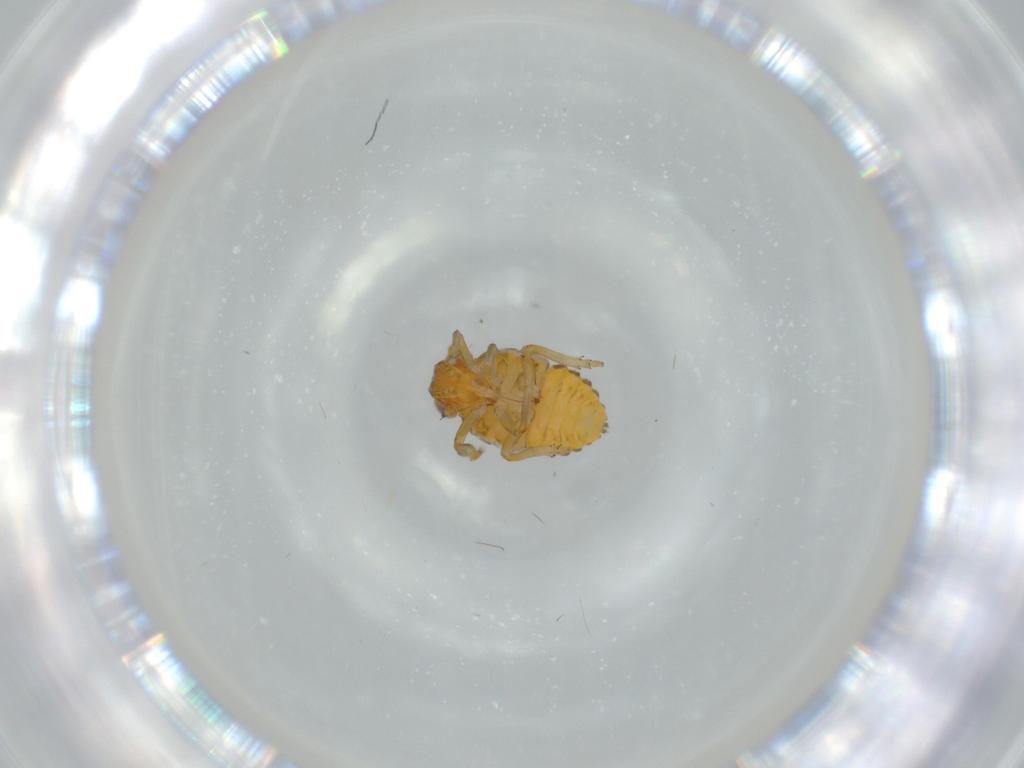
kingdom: Animalia
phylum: Arthropoda
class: Insecta
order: Hemiptera
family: Issidae
